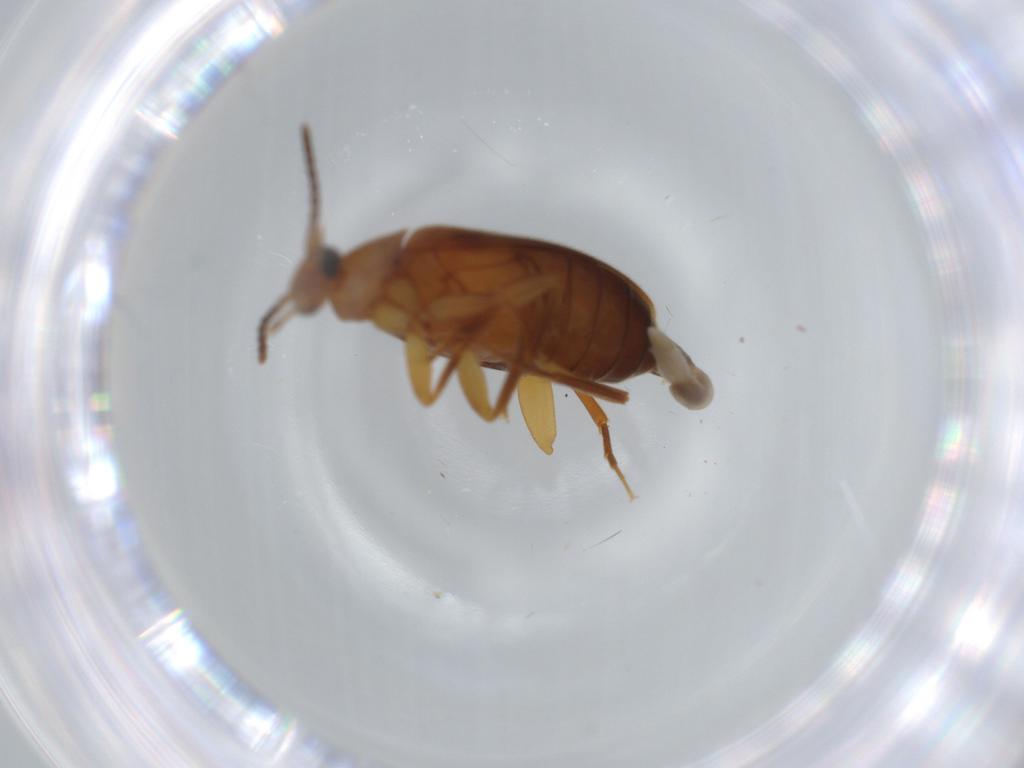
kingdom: Animalia
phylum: Arthropoda
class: Insecta
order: Coleoptera
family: Scraptiidae
